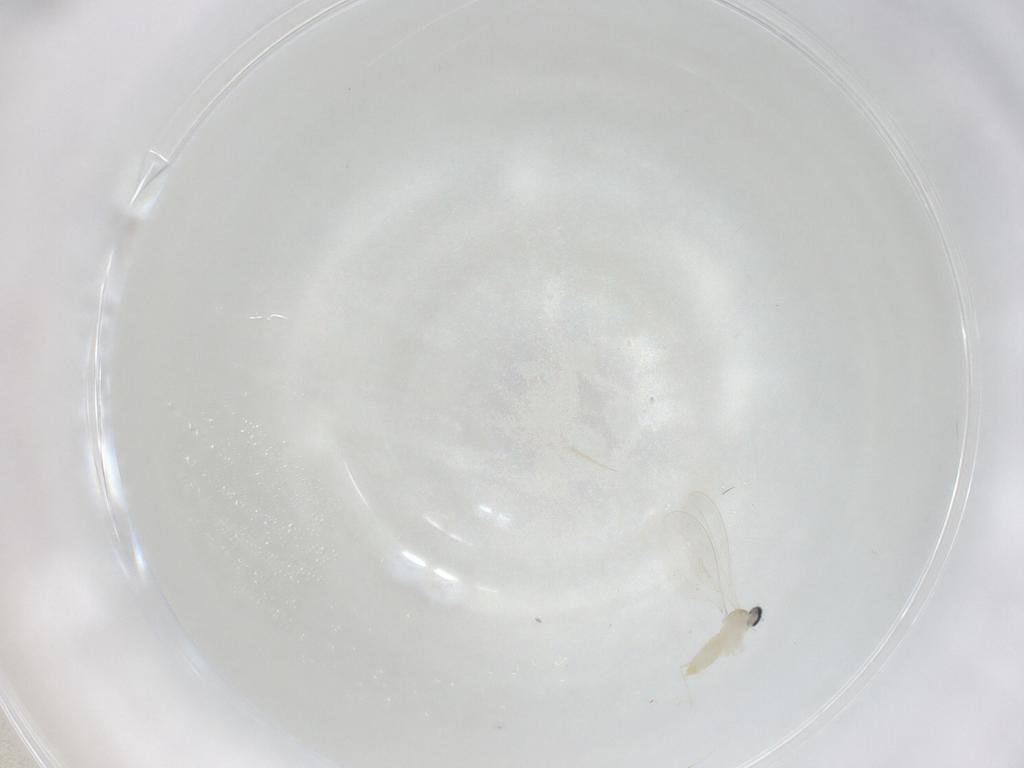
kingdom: Animalia
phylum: Arthropoda
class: Insecta
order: Diptera
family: Cecidomyiidae
